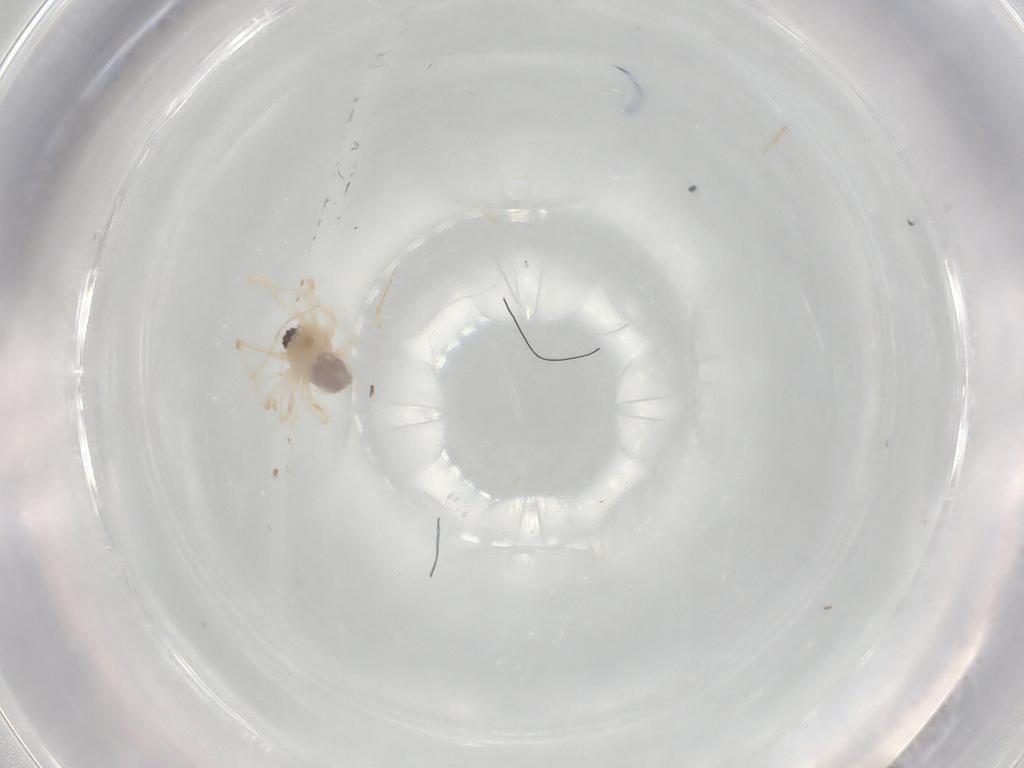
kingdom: Animalia
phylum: Arthropoda
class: Arachnida
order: Araneae
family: Pholcidae
